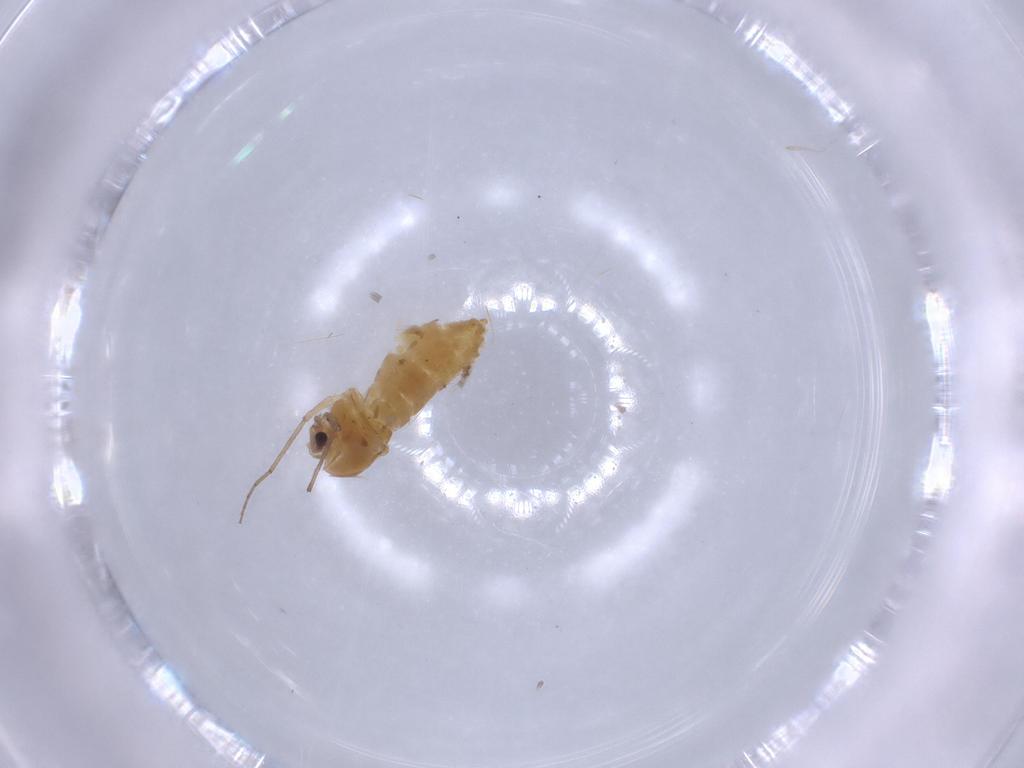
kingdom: Animalia
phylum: Arthropoda
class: Insecta
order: Diptera
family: Chironomidae
